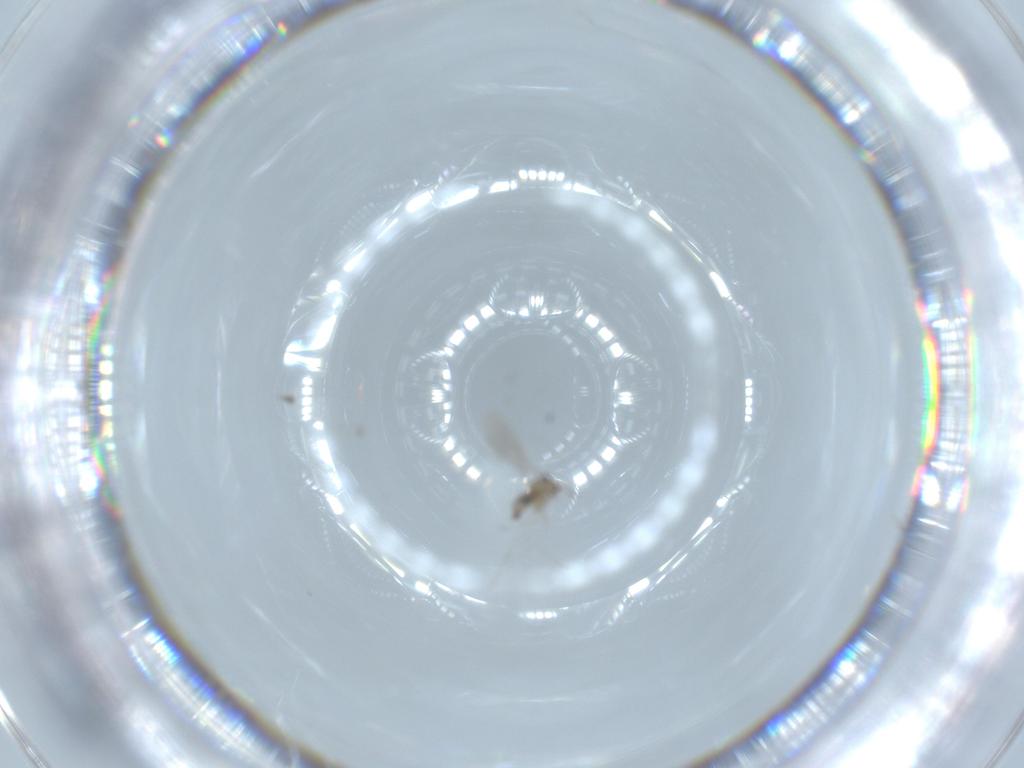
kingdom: Animalia
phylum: Arthropoda
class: Insecta
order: Diptera
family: Cecidomyiidae
